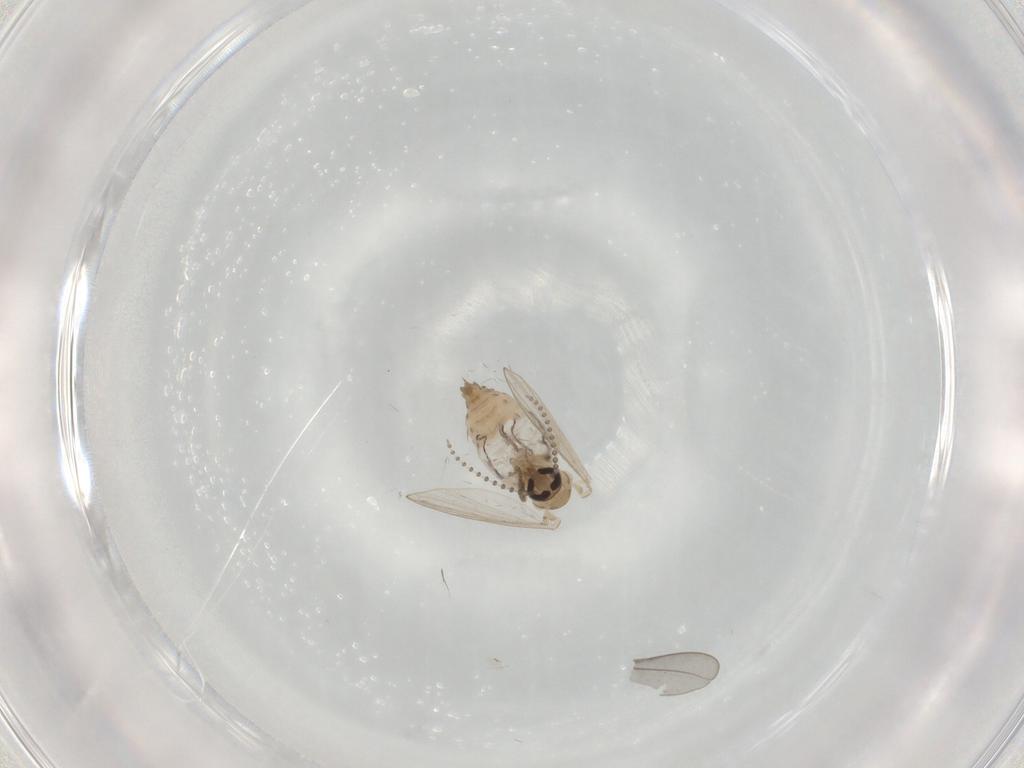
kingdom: Animalia
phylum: Arthropoda
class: Insecta
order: Diptera
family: Psychodidae
